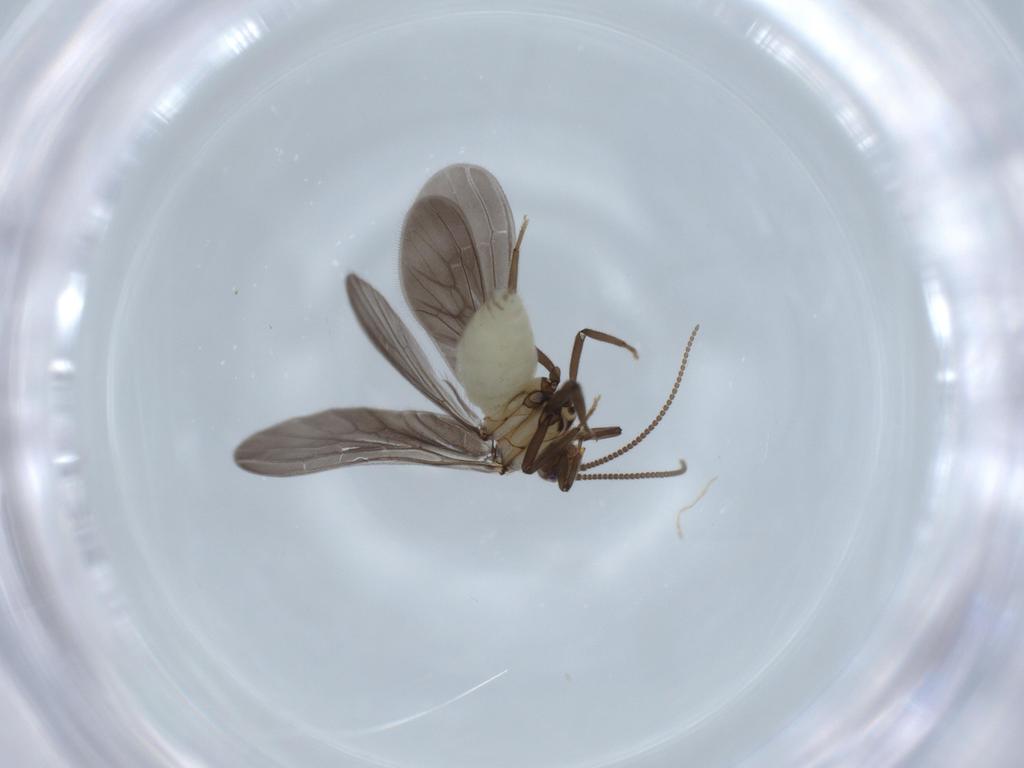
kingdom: Animalia
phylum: Arthropoda
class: Insecta
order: Neuroptera
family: Coniopterygidae
